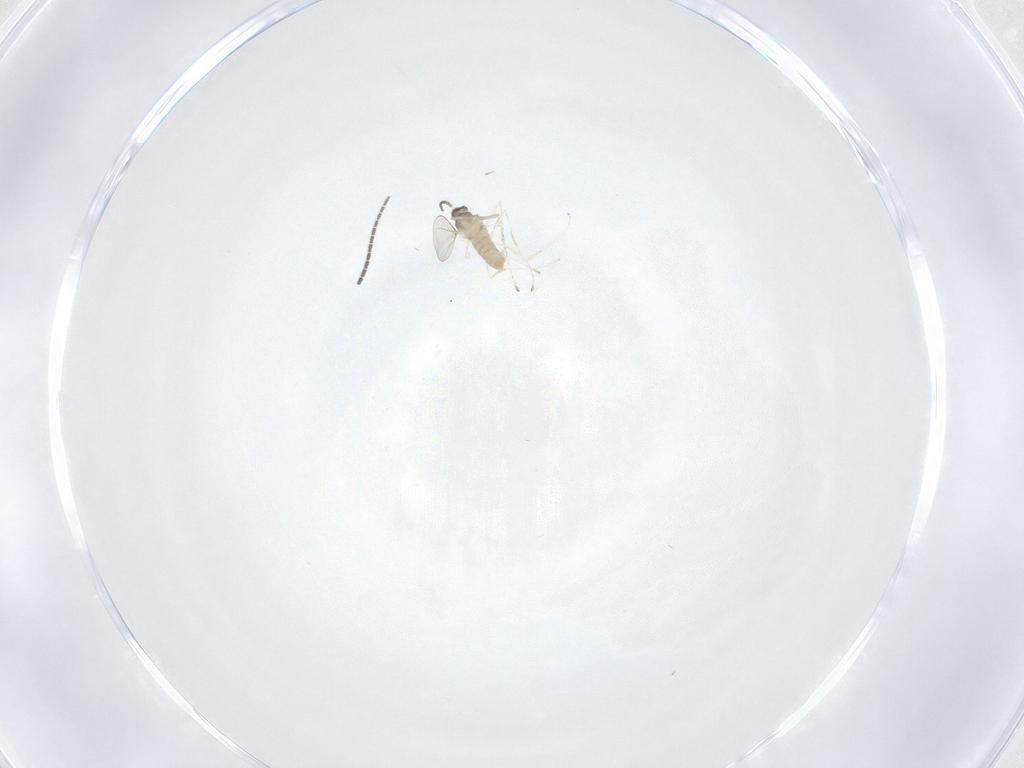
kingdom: Animalia
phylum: Arthropoda
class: Insecta
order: Diptera
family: Cecidomyiidae
